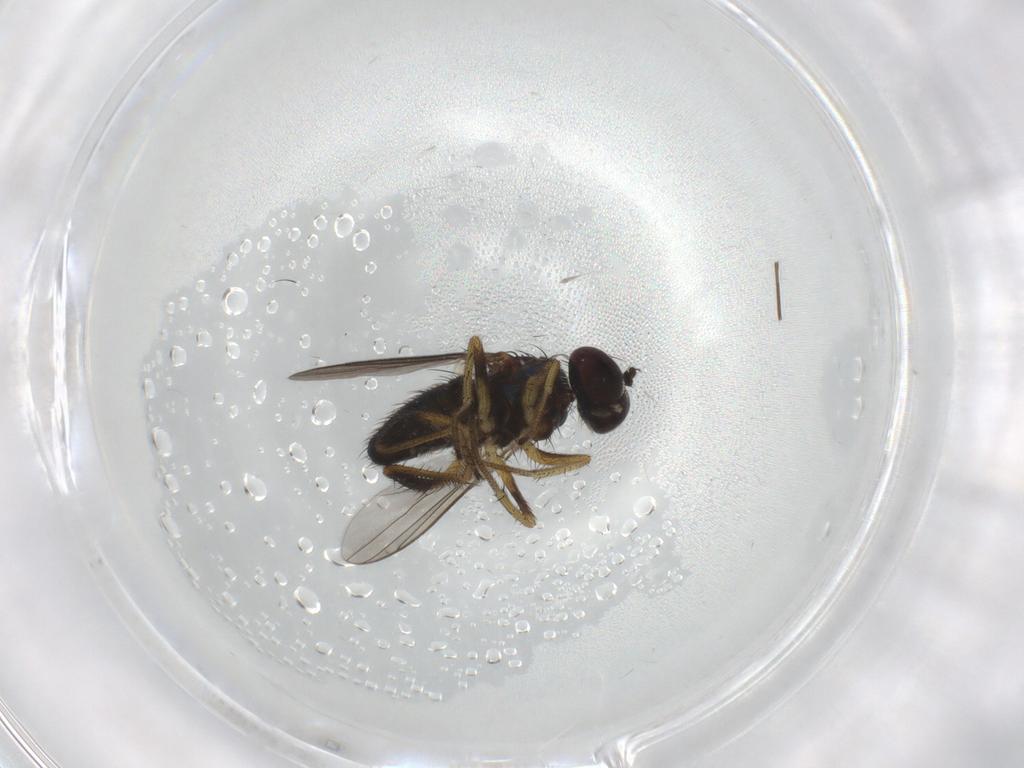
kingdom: Animalia
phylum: Arthropoda
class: Insecta
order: Diptera
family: Dolichopodidae
